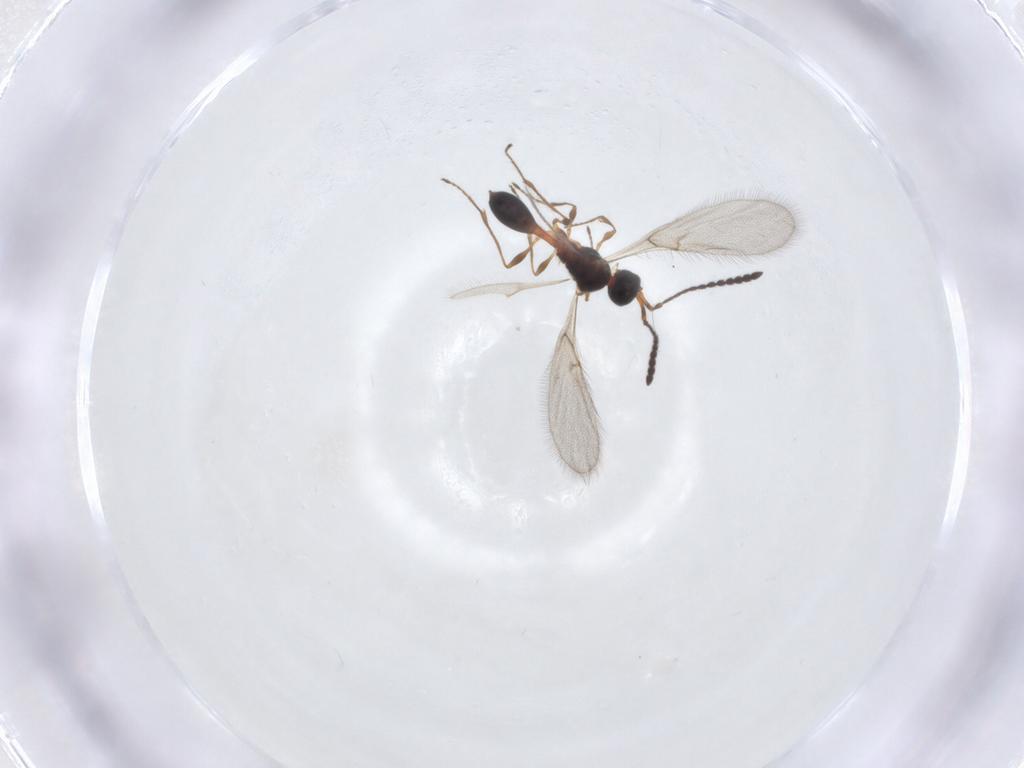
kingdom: Animalia
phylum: Arthropoda
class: Insecta
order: Hymenoptera
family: Diapriidae
